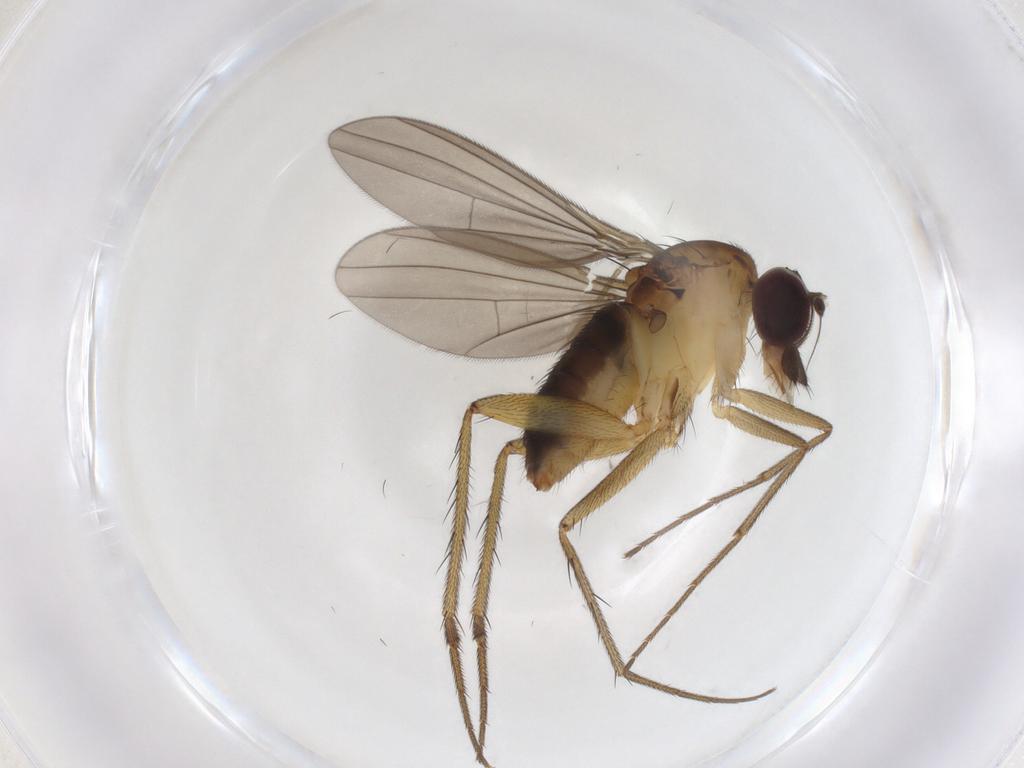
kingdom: Animalia
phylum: Arthropoda
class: Insecta
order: Diptera
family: Dolichopodidae
